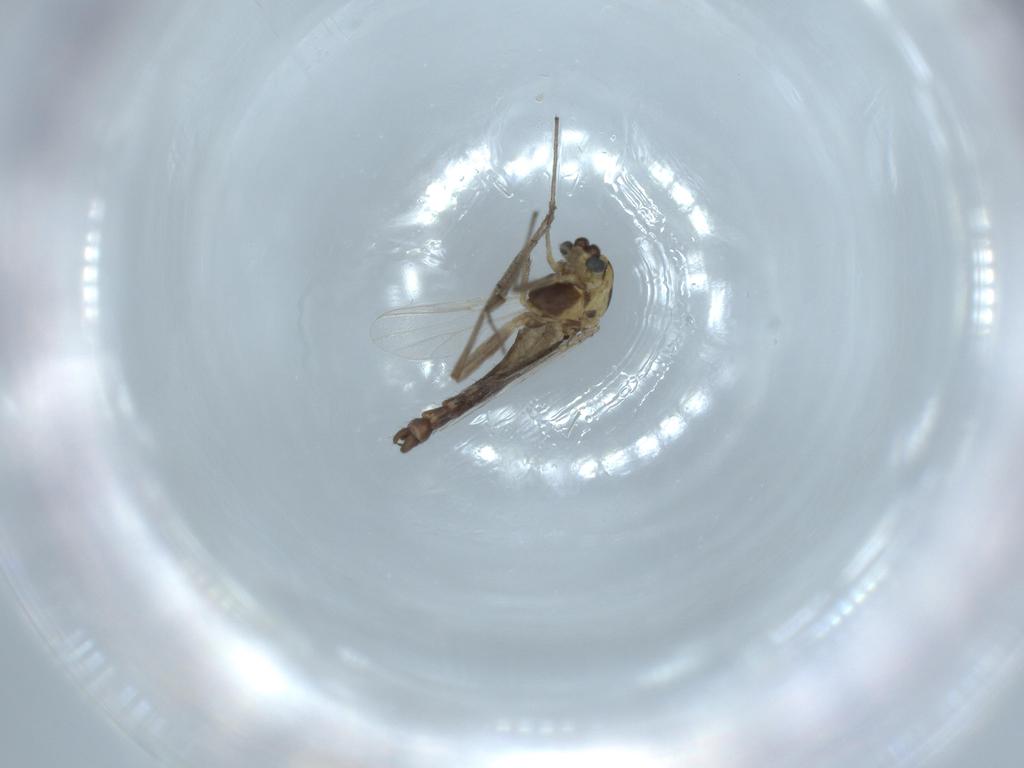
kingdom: Animalia
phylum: Arthropoda
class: Insecta
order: Diptera
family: Chironomidae
